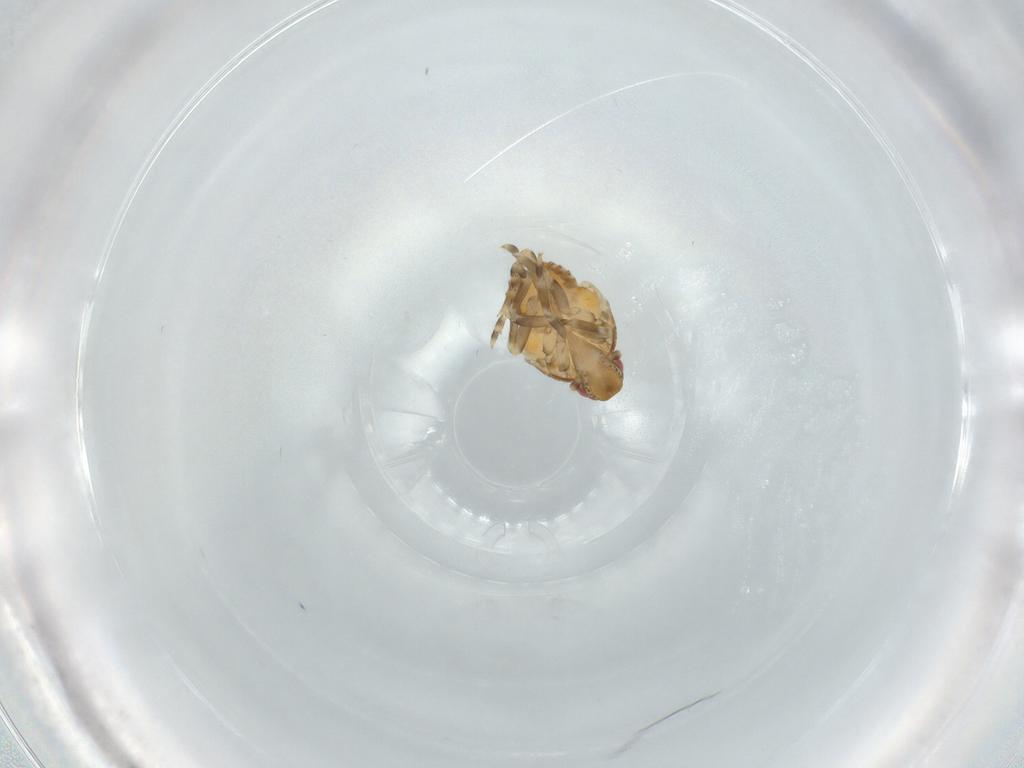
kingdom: Animalia
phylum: Arthropoda
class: Insecta
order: Hemiptera
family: Flatidae
